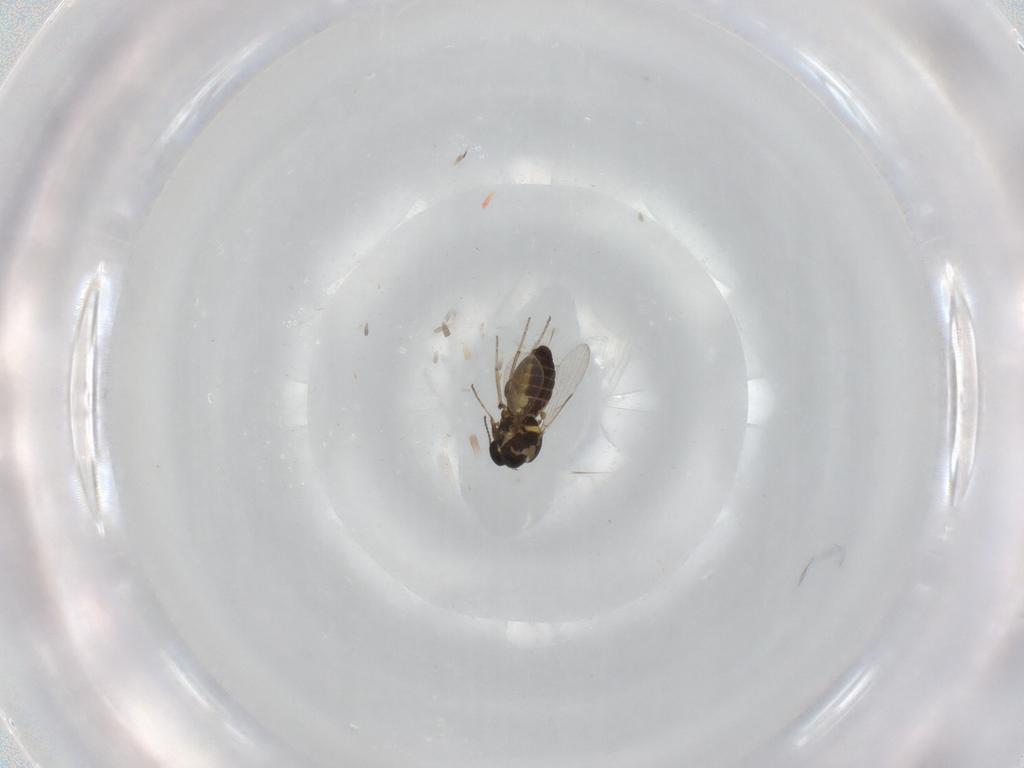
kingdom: Animalia
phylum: Arthropoda
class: Insecta
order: Diptera
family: Ceratopogonidae
